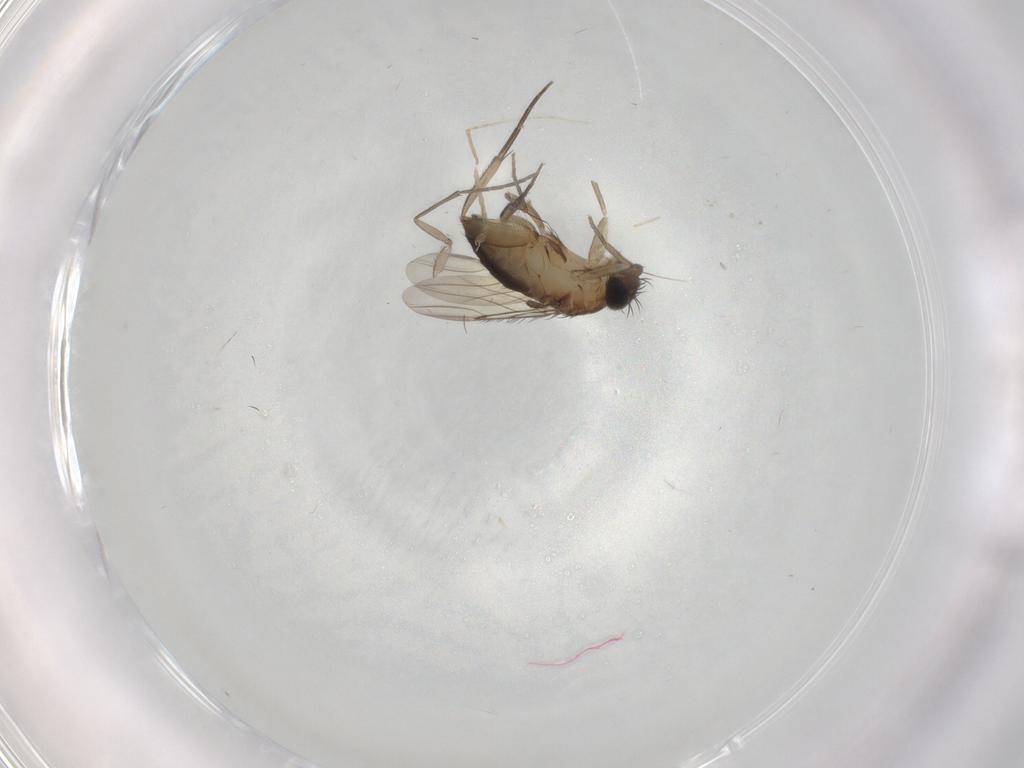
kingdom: Animalia
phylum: Arthropoda
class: Insecta
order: Diptera
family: Phoridae
